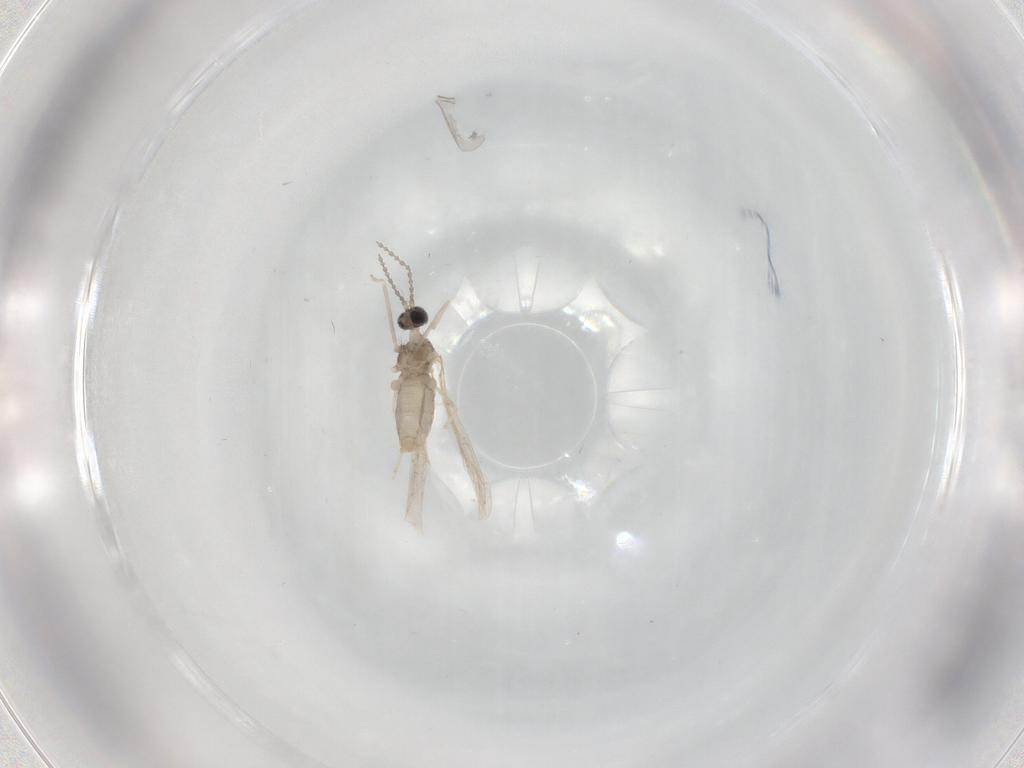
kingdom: Animalia
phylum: Arthropoda
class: Insecta
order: Diptera
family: Cecidomyiidae
